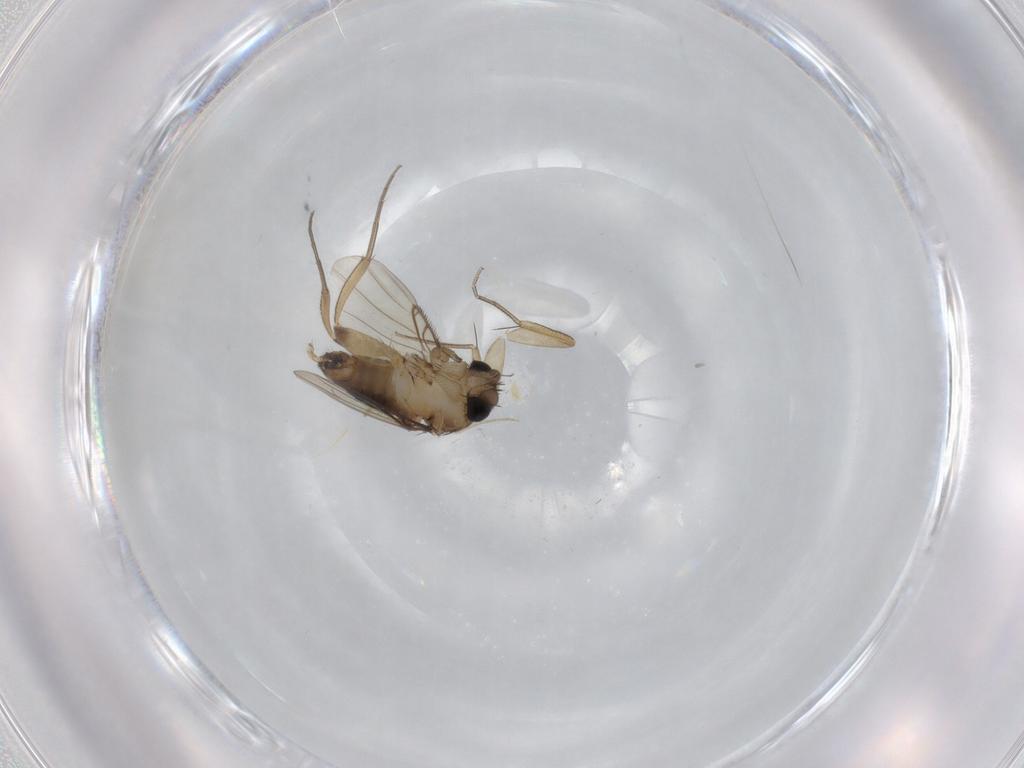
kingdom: Animalia
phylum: Arthropoda
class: Insecta
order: Diptera
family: Phoridae
